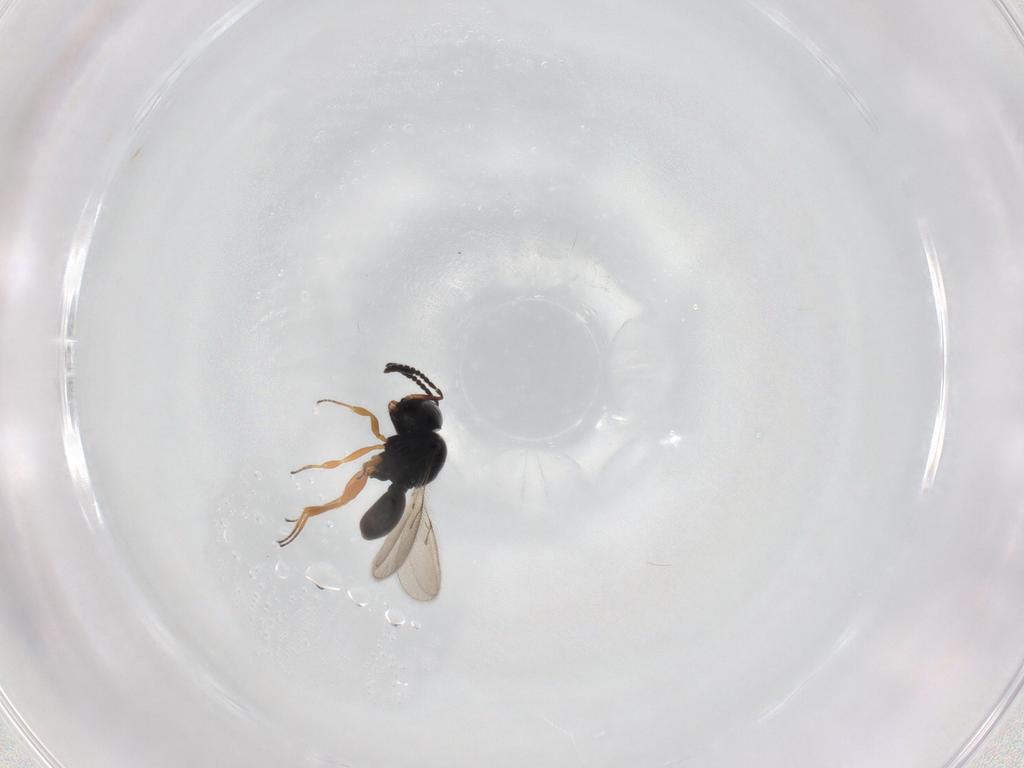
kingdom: Animalia
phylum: Arthropoda
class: Insecta
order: Hymenoptera
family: Scelionidae
